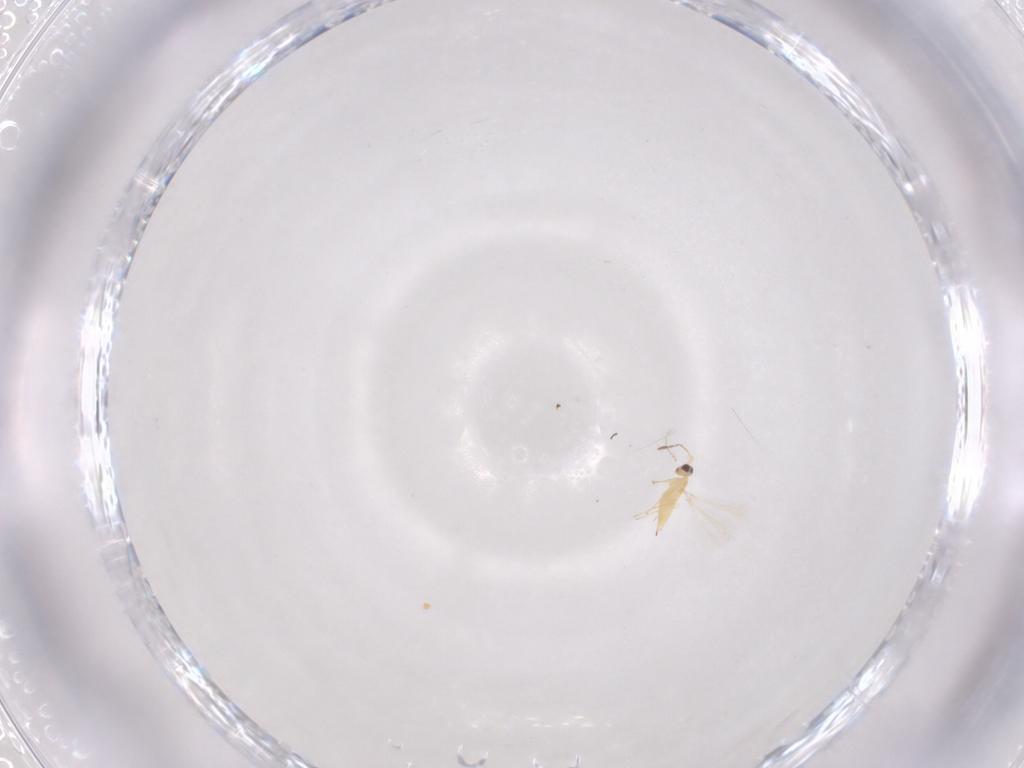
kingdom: Animalia
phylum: Arthropoda
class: Insecta
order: Hymenoptera
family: Mymaridae
